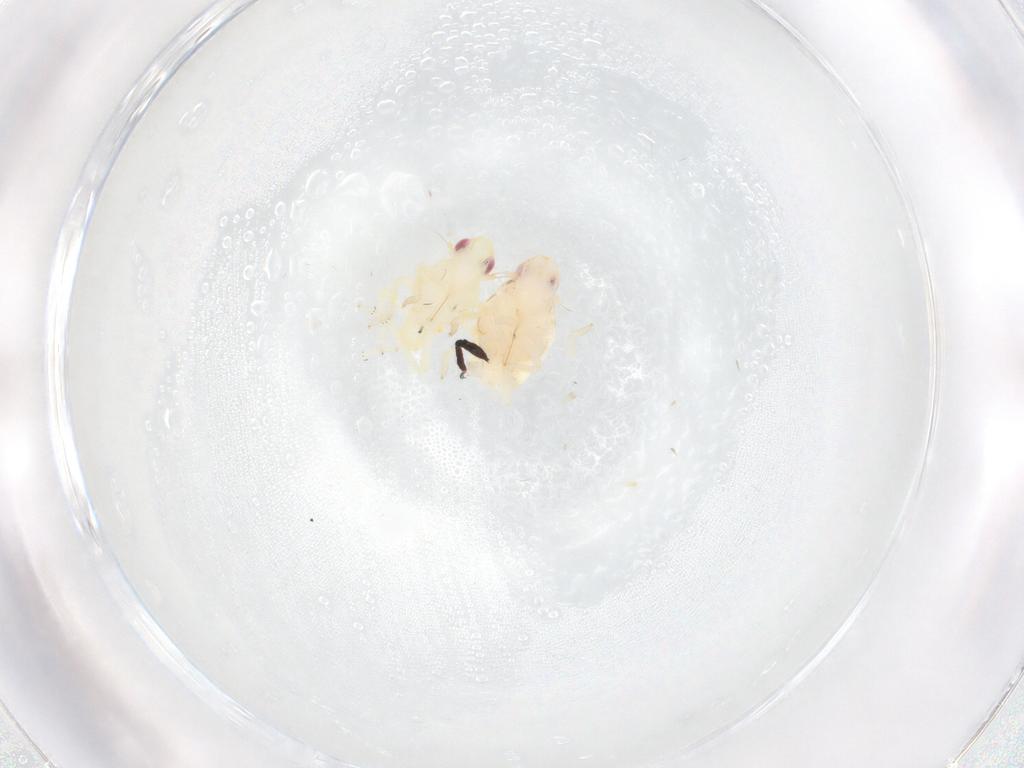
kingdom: Animalia
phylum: Arthropoda
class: Insecta
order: Hemiptera
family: Flatidae
